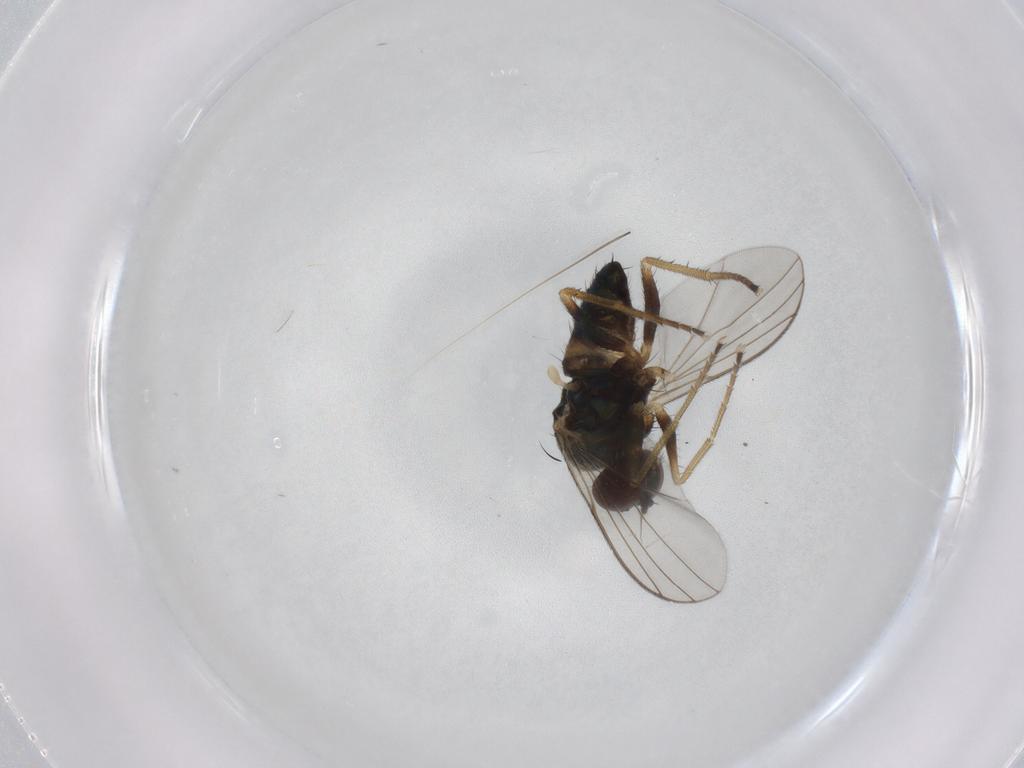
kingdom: Animalia
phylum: Arthropoda
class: Insecta
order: Diptera
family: Dolichopodidae
